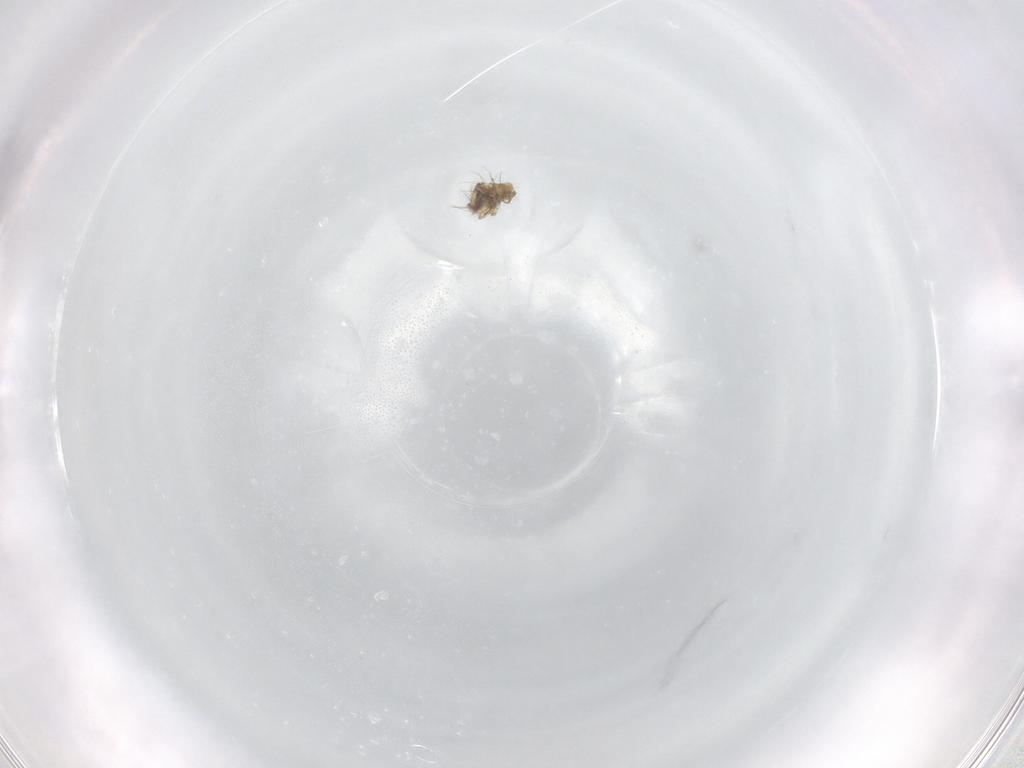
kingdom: Animalia
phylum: Arthropoda
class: Arachnida
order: Sarcoptiformes
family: Ceratozetidae
